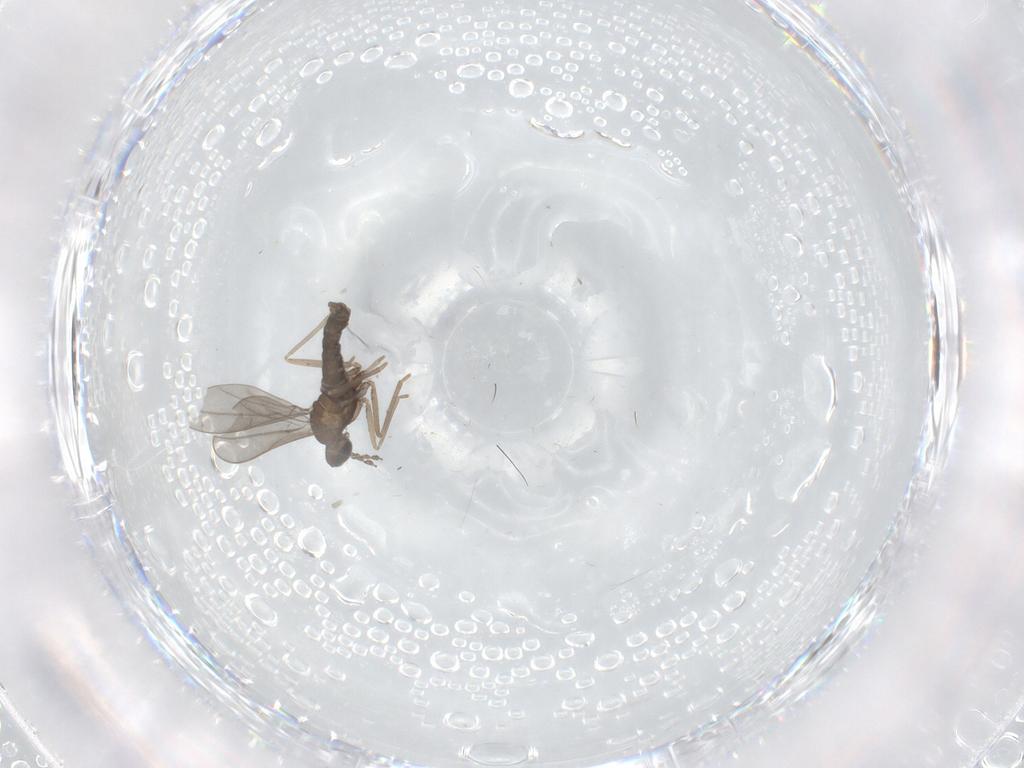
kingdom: Animalia
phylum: Arthropoda
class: Insecta
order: Diptera
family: Cecidomyiidae
